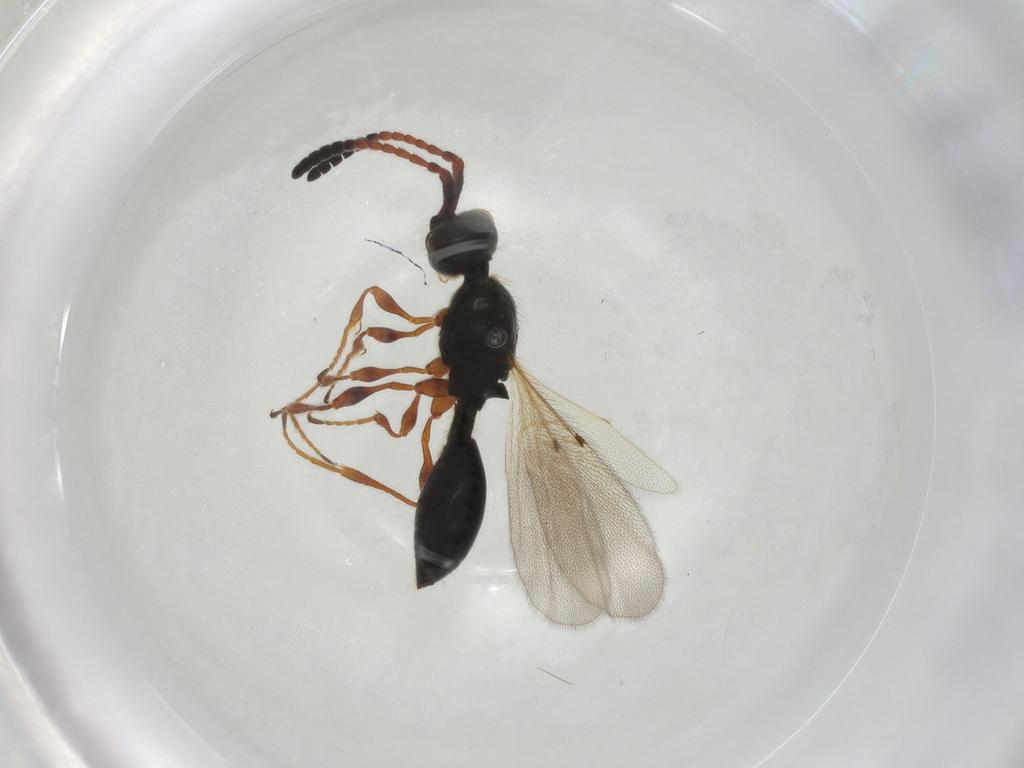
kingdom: Animalia
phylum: Arthropoda
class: Insecta
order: Hymenoptera
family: Diapriidae
